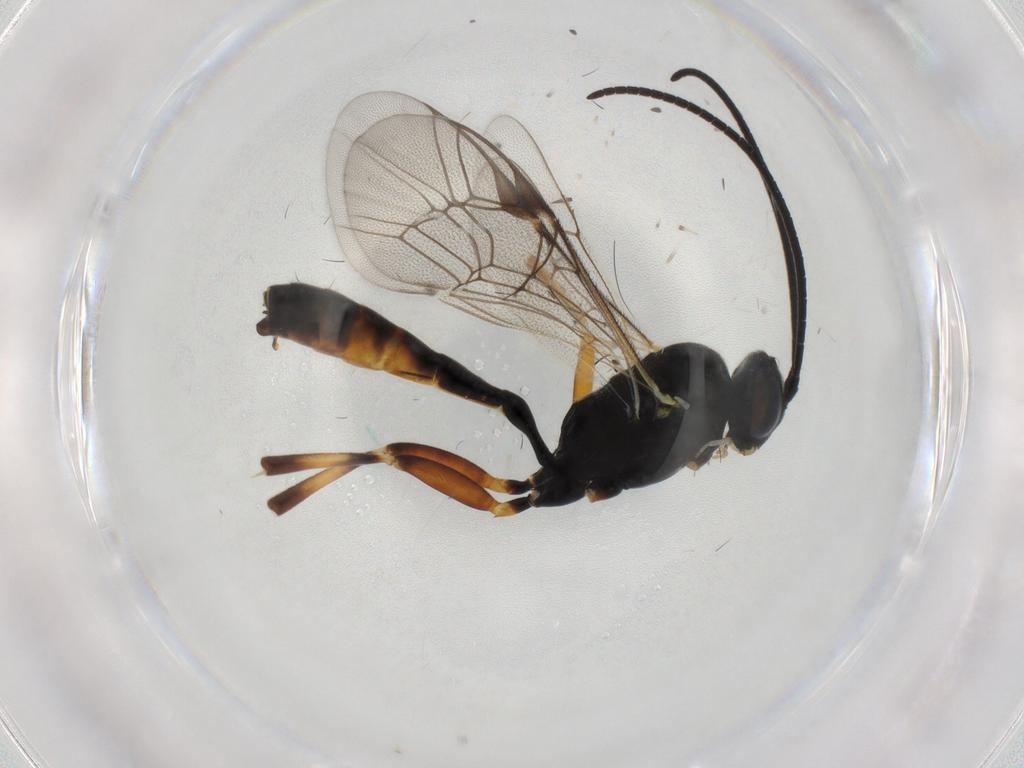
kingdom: Animalia
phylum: Arthropoda
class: Insecta
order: Hymenoptera
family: Ichneumonidae
